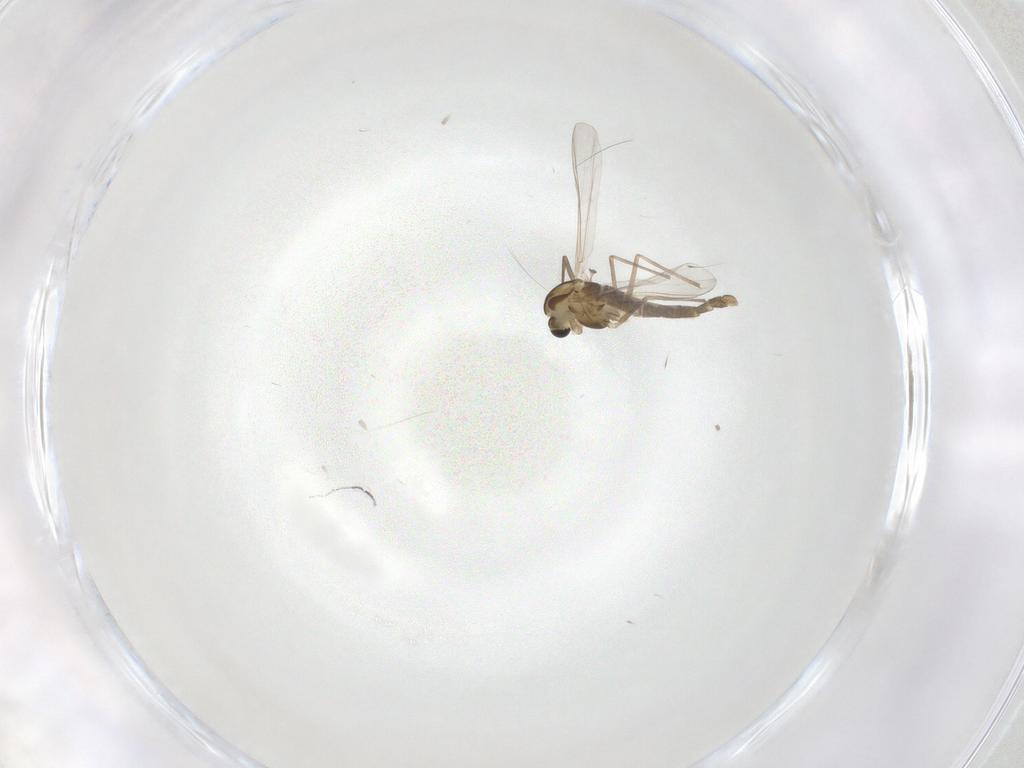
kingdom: Animalia
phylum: Arthropoda
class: Insecta
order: Diptera
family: Chironomidae
